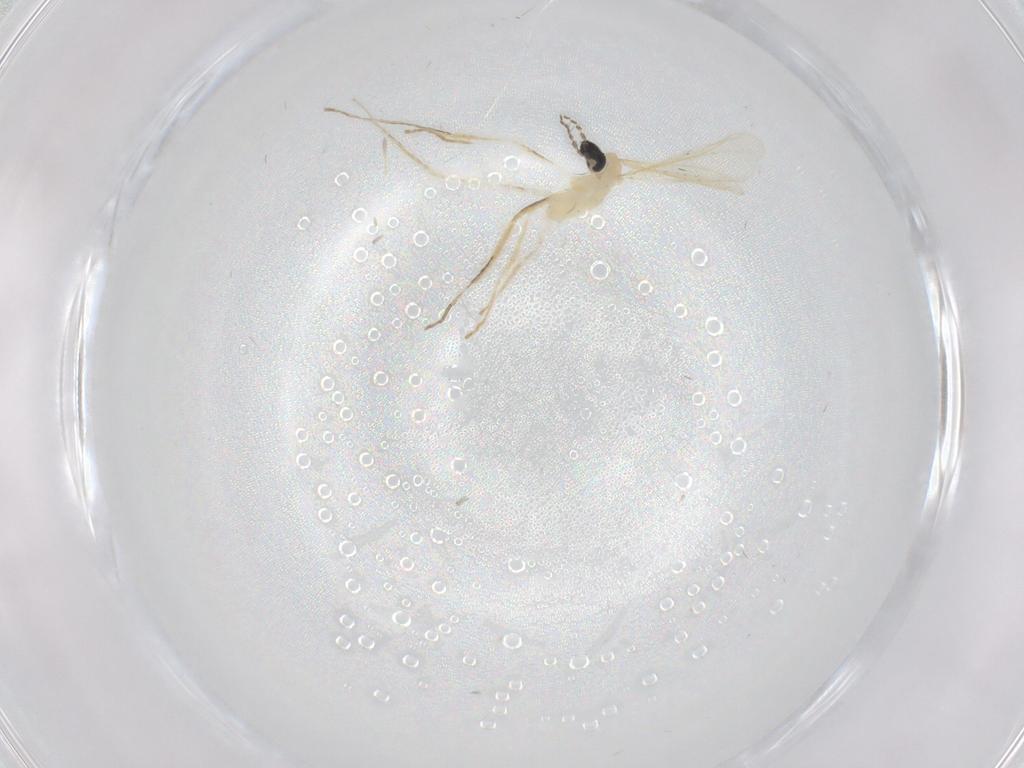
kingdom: Animalia
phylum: Arthropoda
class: Insecta
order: Diptera
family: Cecidomyiidae
